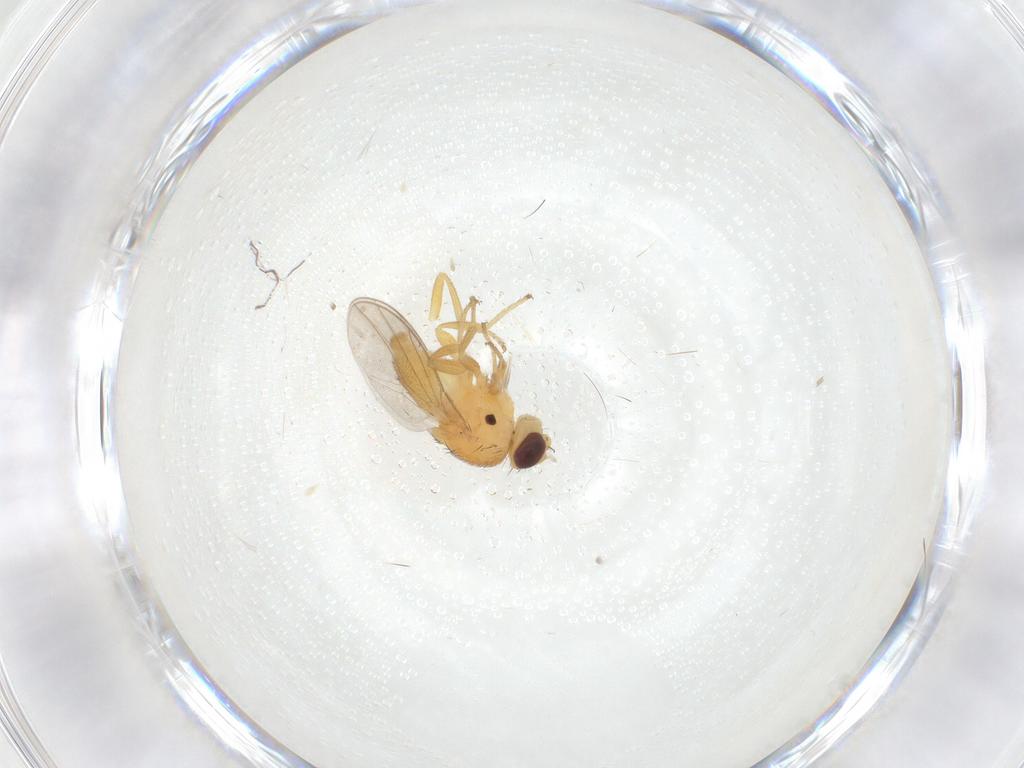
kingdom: Animalia
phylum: Arthropoda
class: Insecta
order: Diptera
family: Chloropidae
